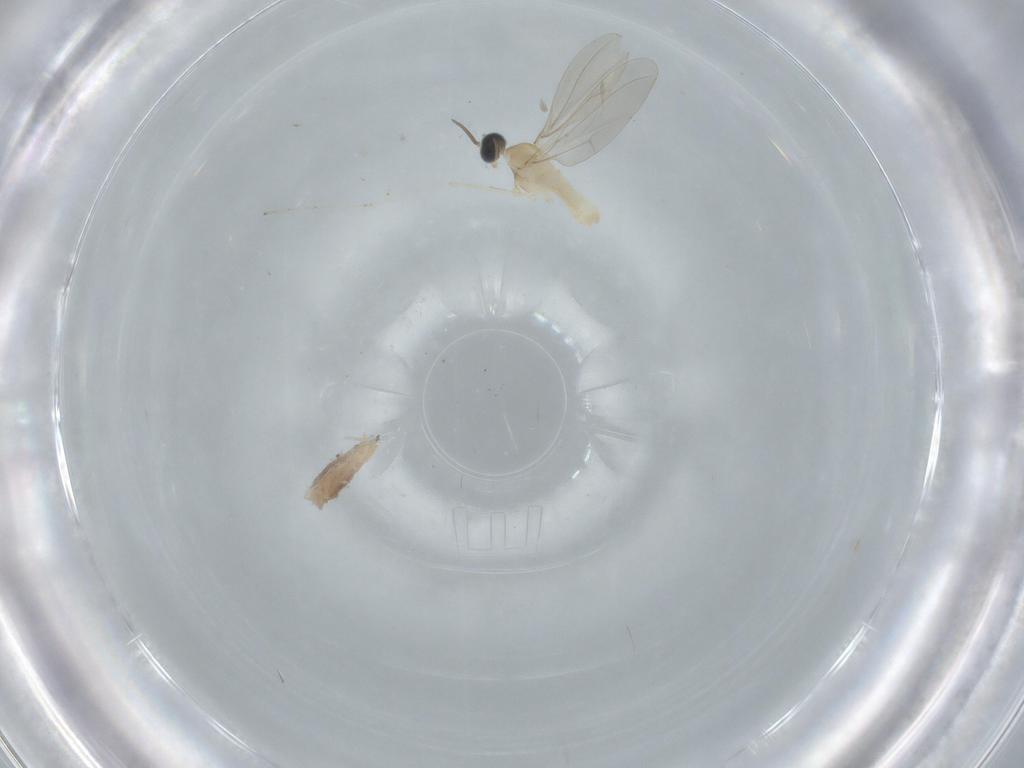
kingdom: Animalia
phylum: Arthropoda
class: Insecta
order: Diptera
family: Cecidomyiidae
